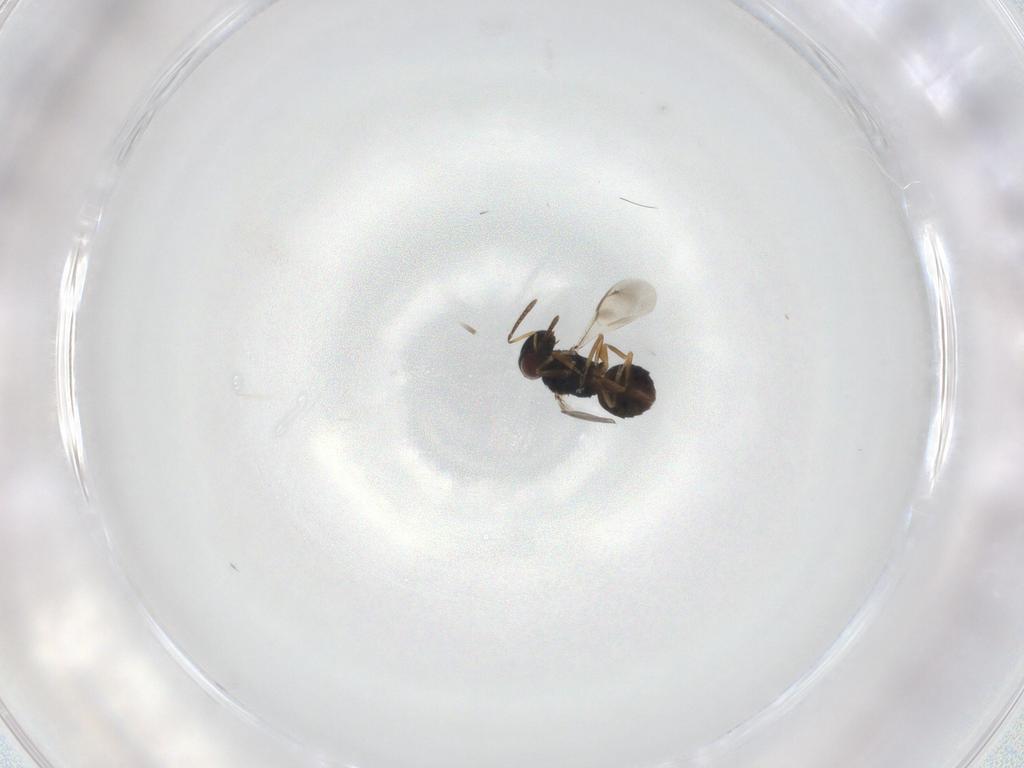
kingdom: Animalia
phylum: Arthropoda
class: Insecta
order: Hymenoptera
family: Pteromalidae
